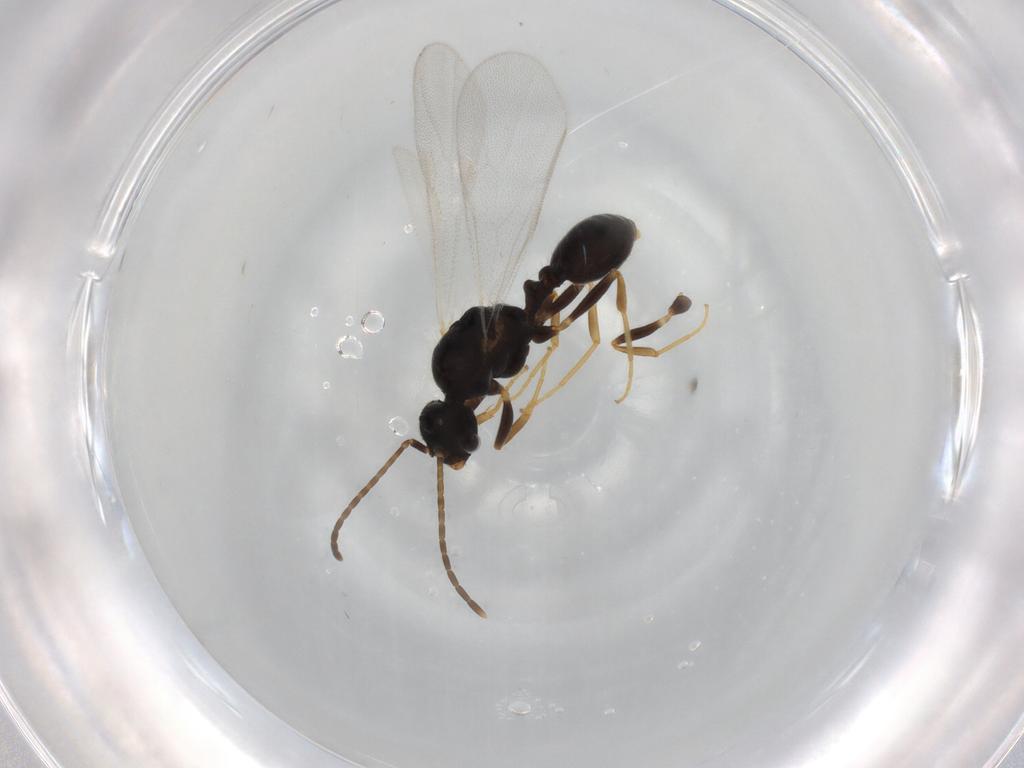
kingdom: Animalia
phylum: Arthropoda
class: Insecta
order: Hymenoptera
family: Formicidae
